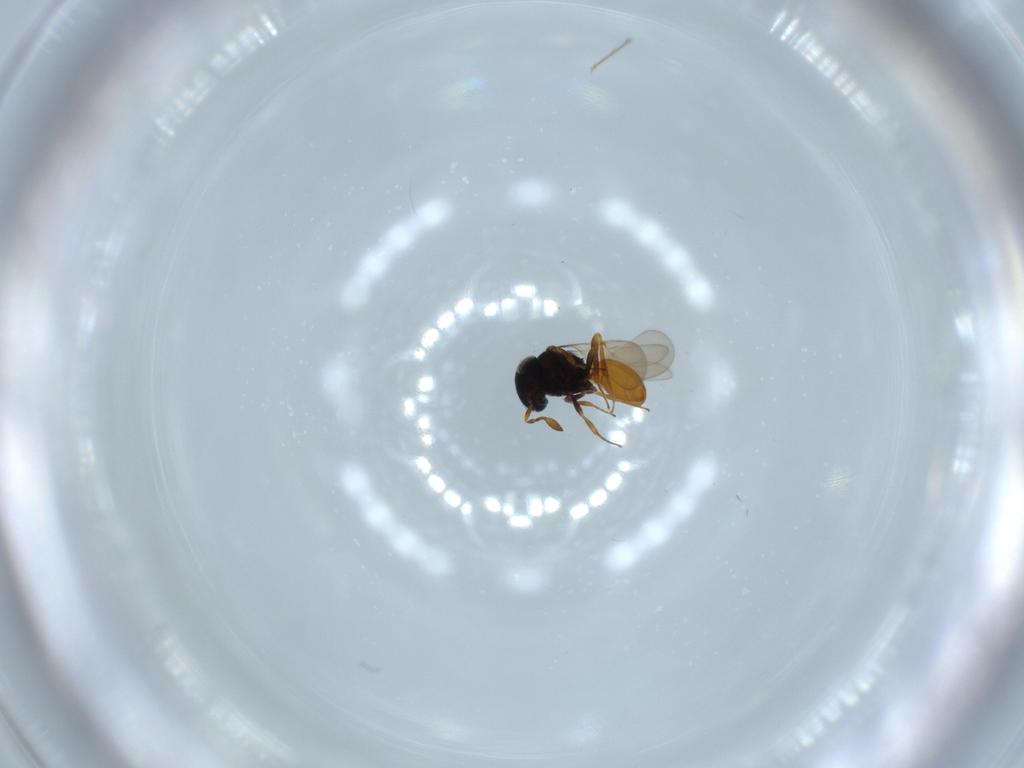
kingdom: Animalia
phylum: Arthropoda
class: Insecta
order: Hymenoptera
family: Scelionidae
